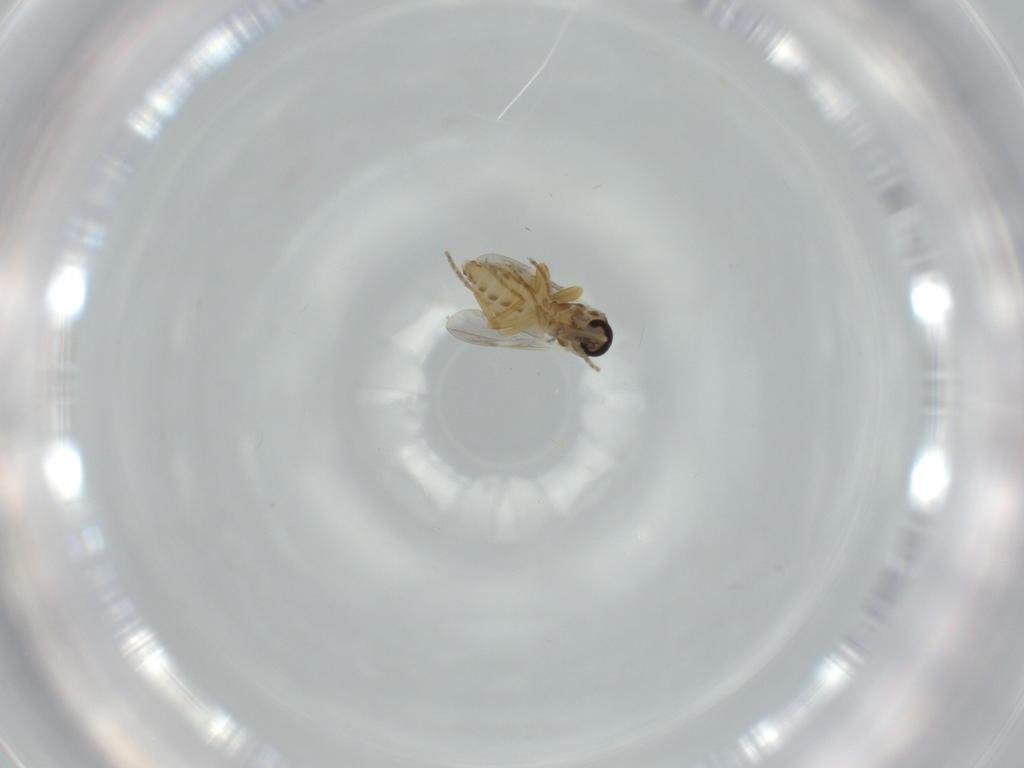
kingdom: Animalia
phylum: Arthropoda
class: Insecta
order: Diptera
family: Ceratopogonidae
